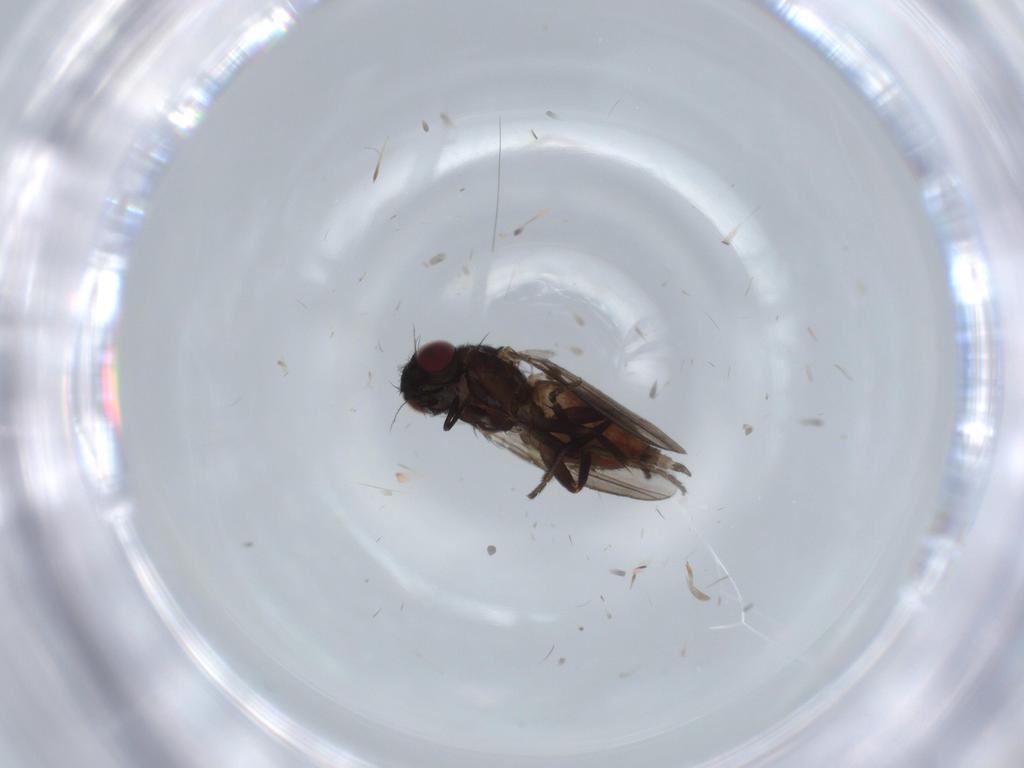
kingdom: Animalia
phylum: Arthropoda
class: Insecta
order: Diptera
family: Milichiidae
